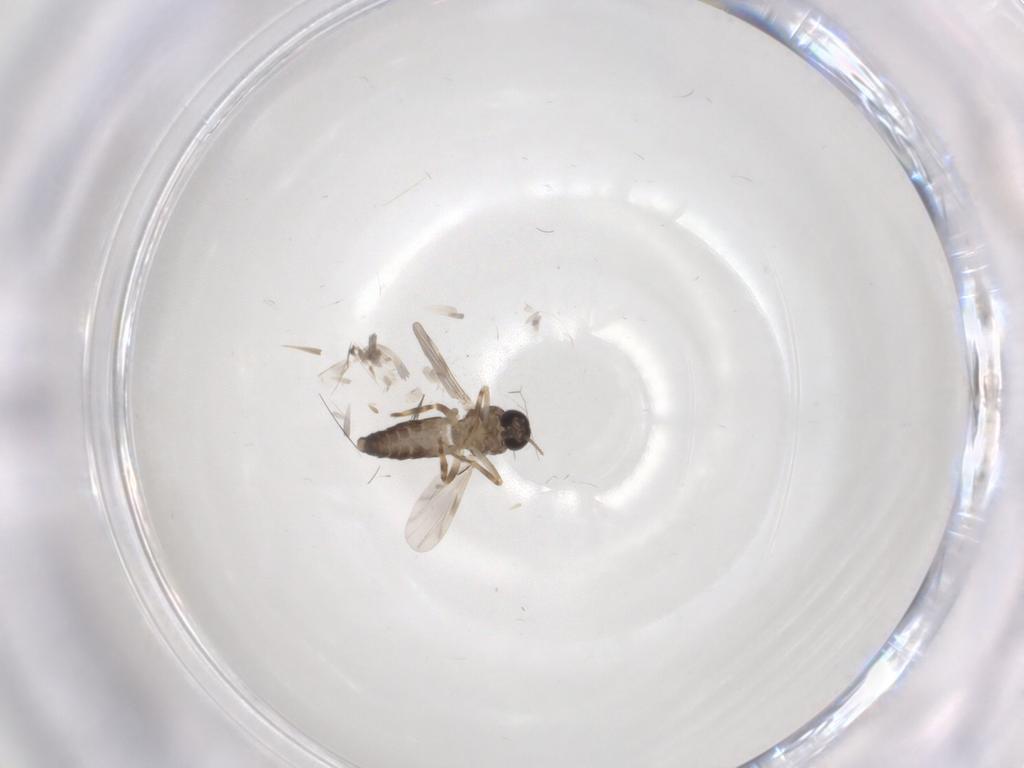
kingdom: Animalia
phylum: Arthropoda
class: Insecta
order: Diptera
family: Ceratopogonidae
